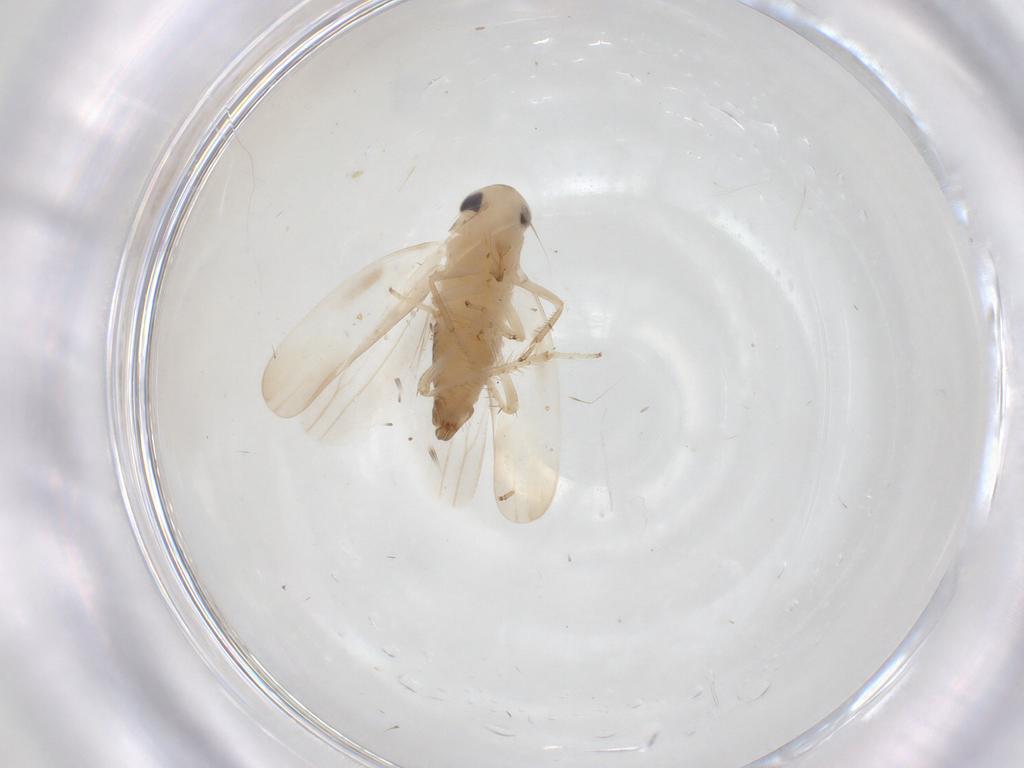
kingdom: Animalia
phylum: Arthropoda
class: Insecta
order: Hemiptera
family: Cicadellidae
